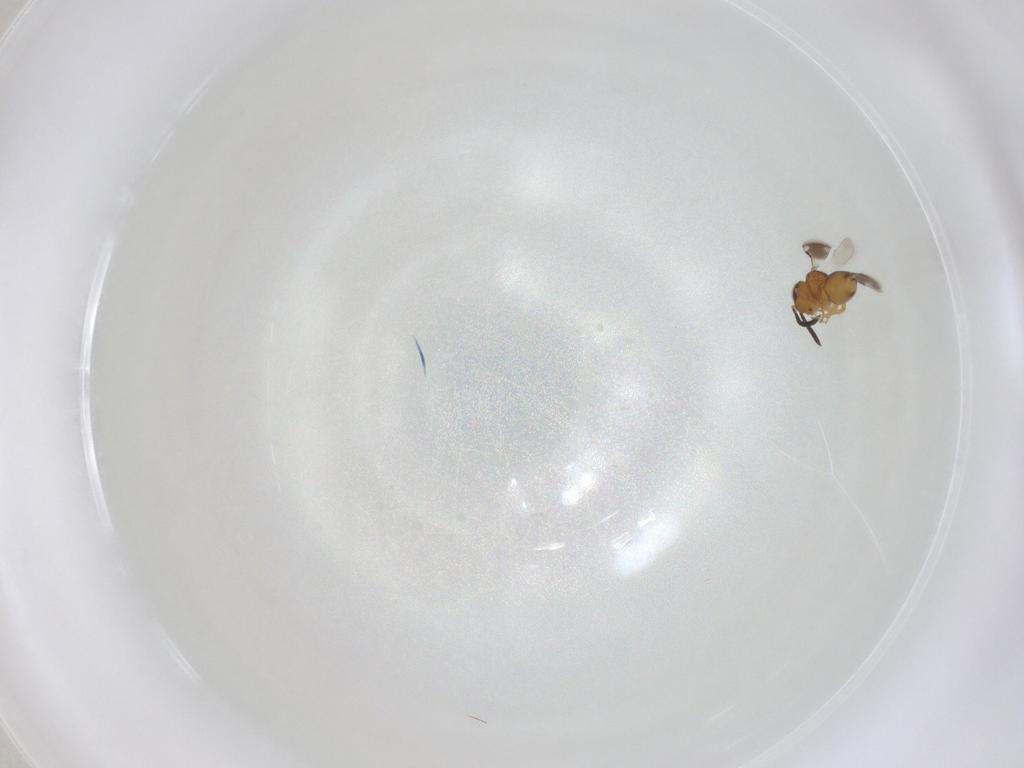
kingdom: Animalia
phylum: Arthropoda
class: Insecta
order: Hymenoptera
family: Ceraphronidae
